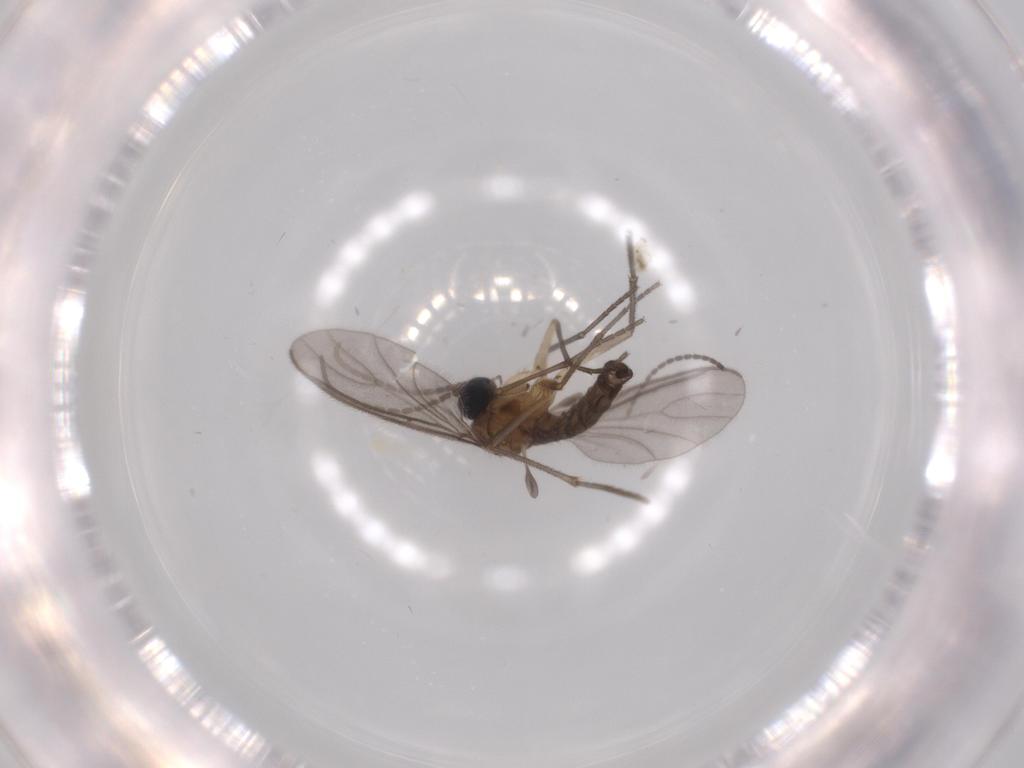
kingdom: Animalia
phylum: Arthropoda
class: Insecta
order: Diptera
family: Sciaridae
